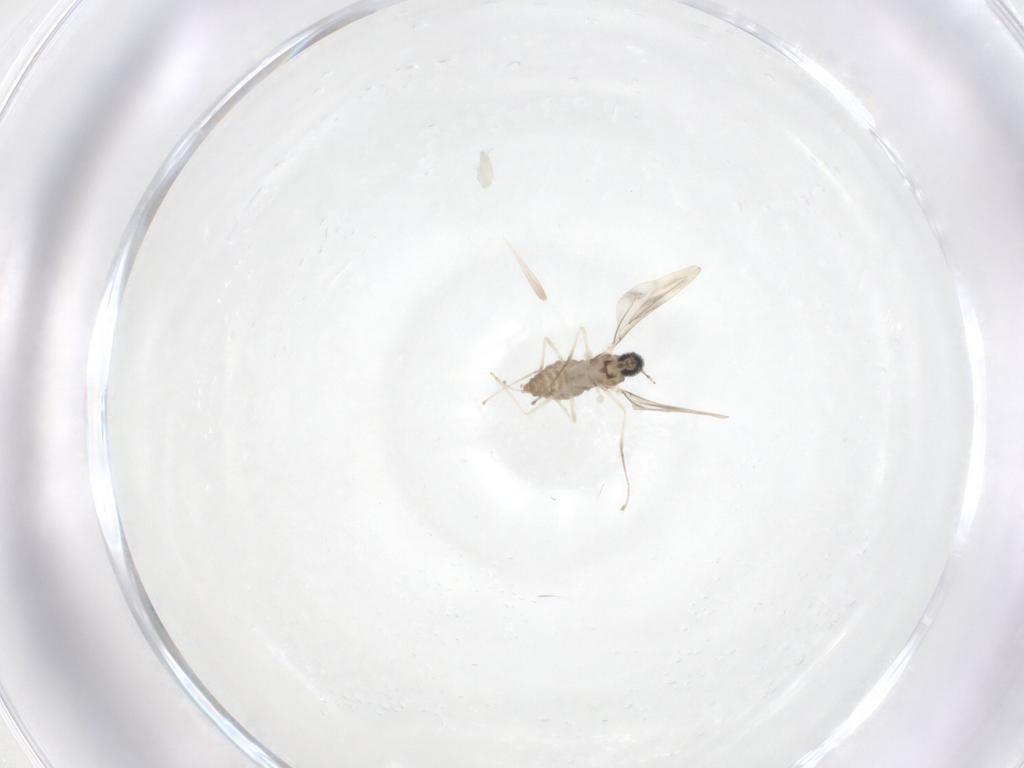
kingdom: Animalia
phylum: Arthropoda
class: Insecta
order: Diptera
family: Cecidomyiidae
